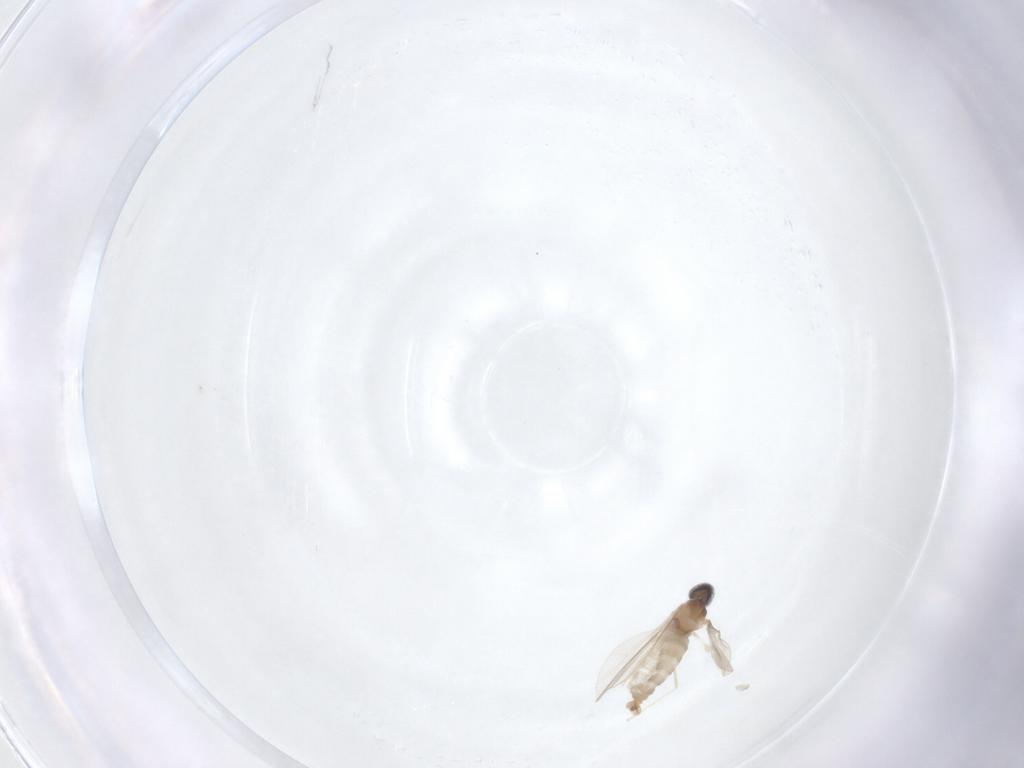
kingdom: Animalia
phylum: Arthropoda
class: Insecta
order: Diptera
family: Cecidomyiidae
